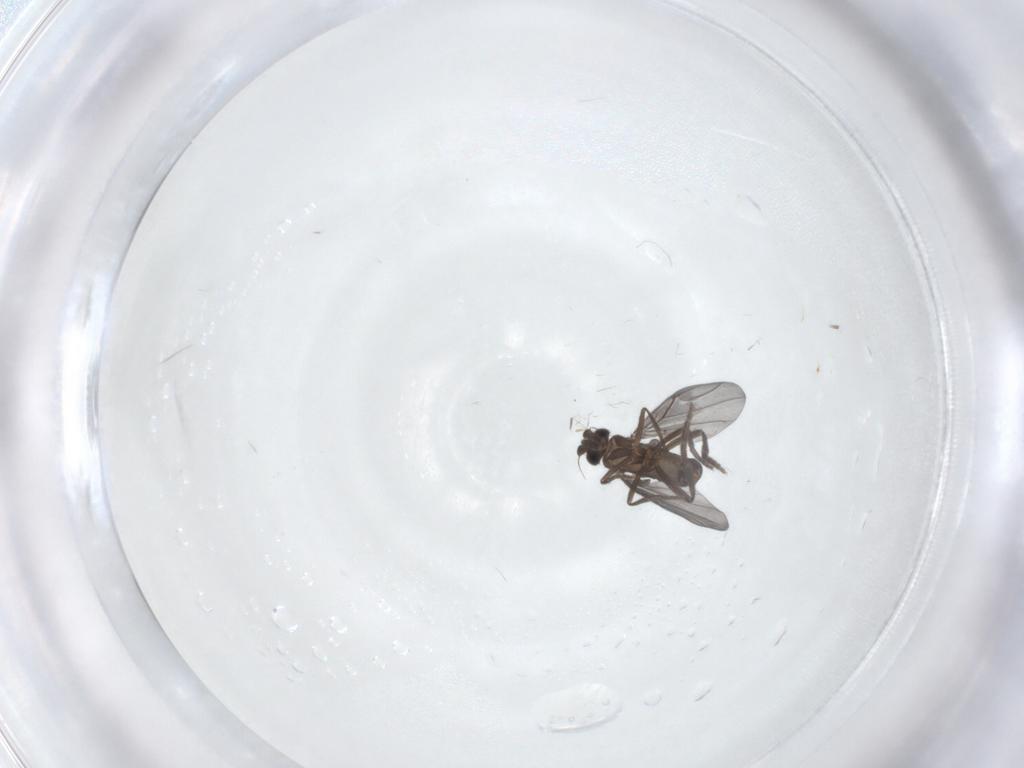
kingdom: Animalia
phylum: Arthropoda
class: Insecta
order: Diptera
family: Phoridae
